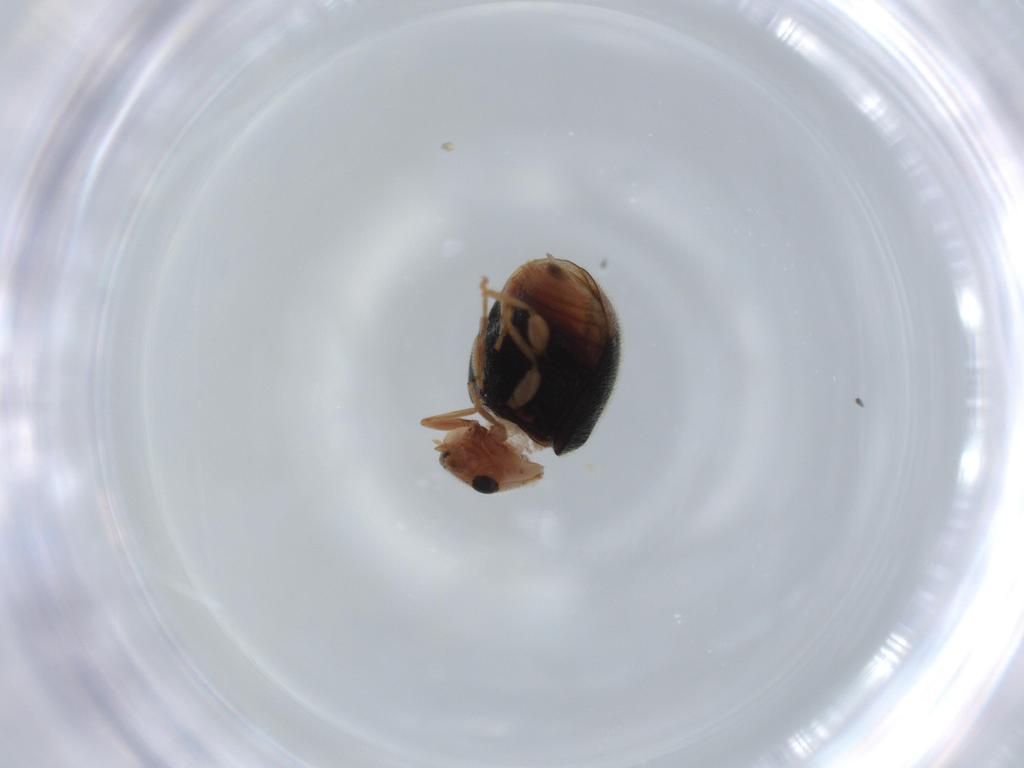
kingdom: Animalia
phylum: Arthropoda
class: Insecta
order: Coleoptera
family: Coccinellidae
